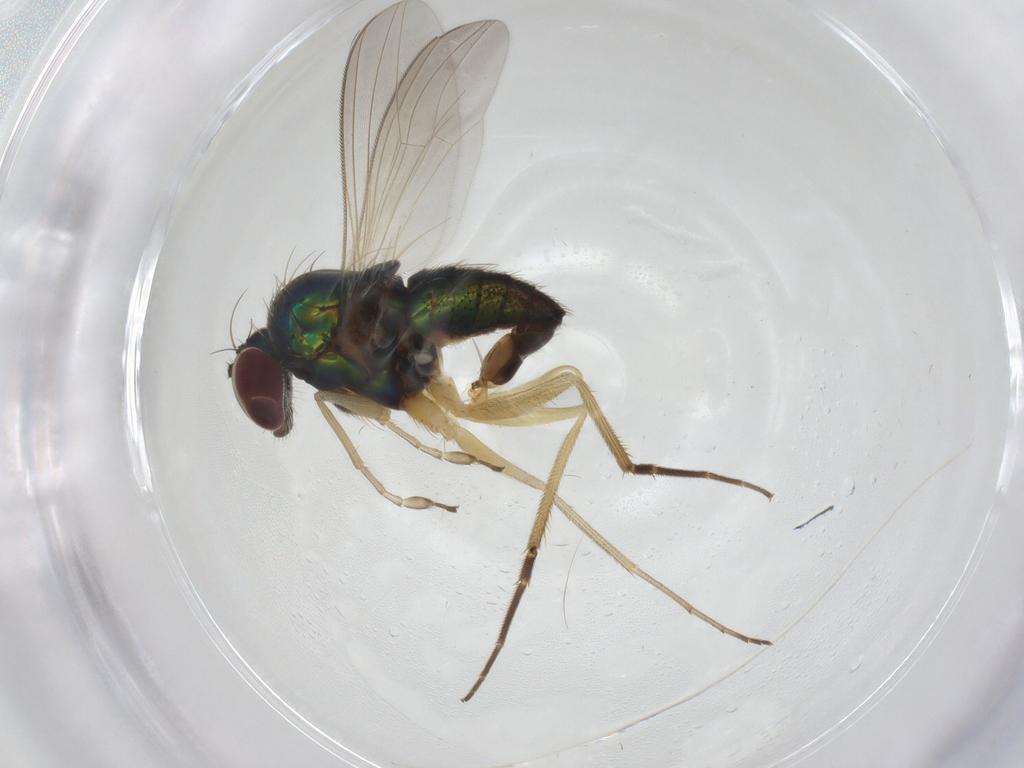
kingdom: Animalia
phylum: Arthropoda
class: Insecta
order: Diptera
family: Dolichopodidae
